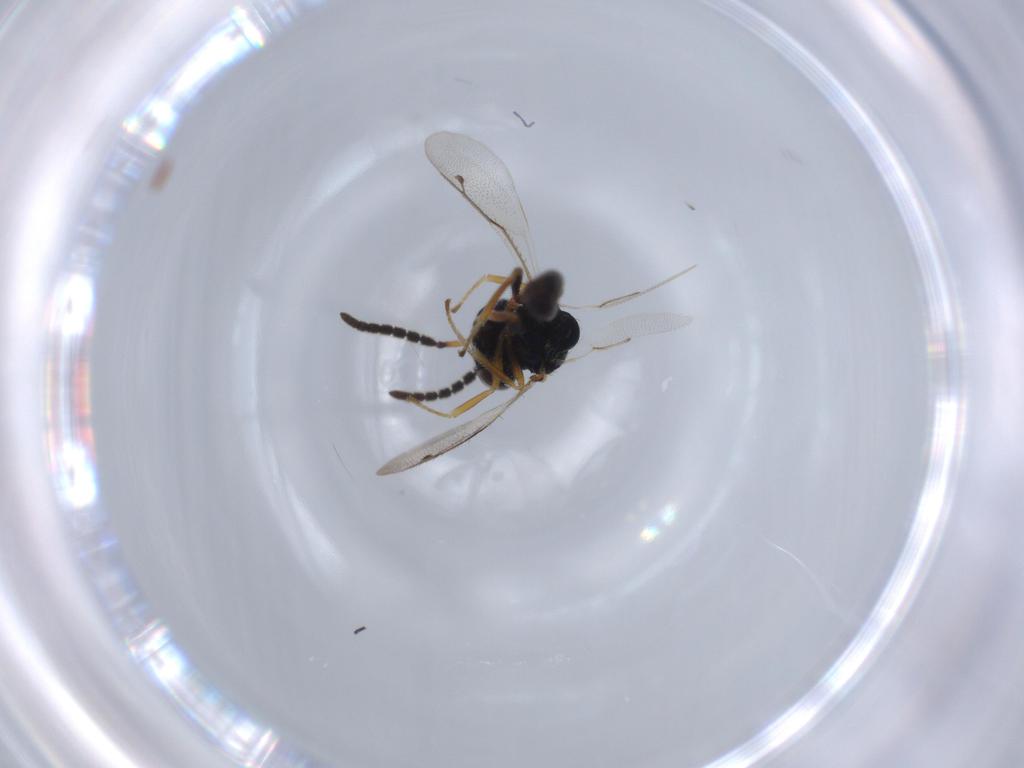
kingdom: Animalia
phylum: Arthropoda
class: Insecta
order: Hymenoptera
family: Pteromalidae
